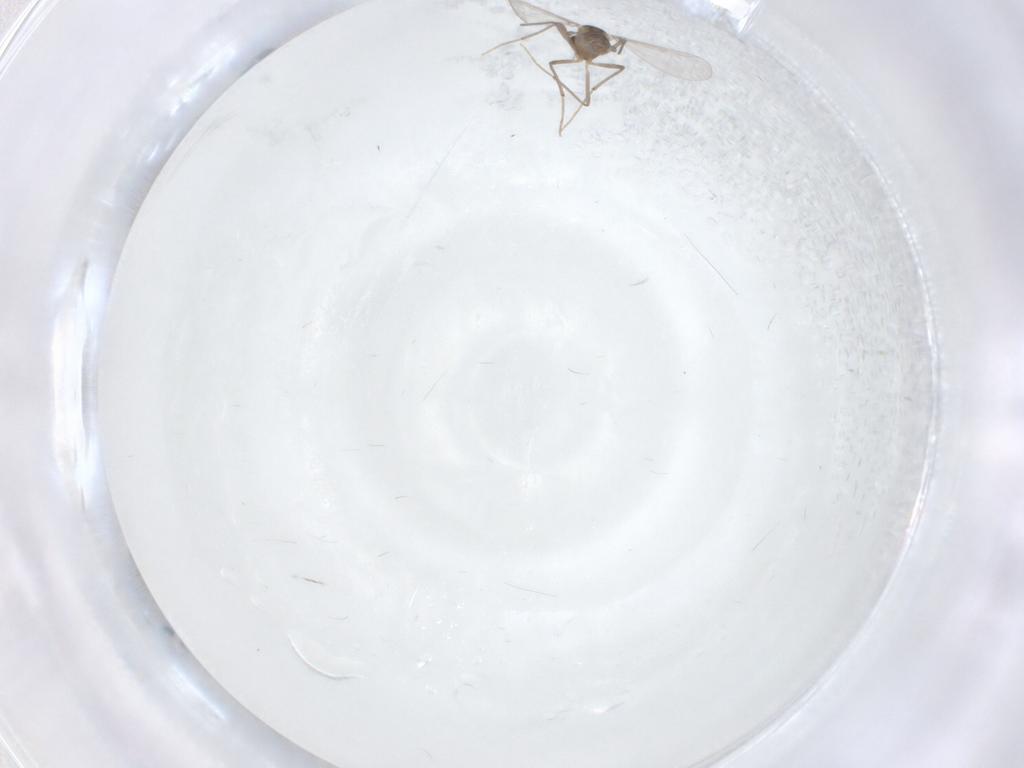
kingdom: Animalia
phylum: Arthropoda
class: Insecta
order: Diptera
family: Chironomidae
